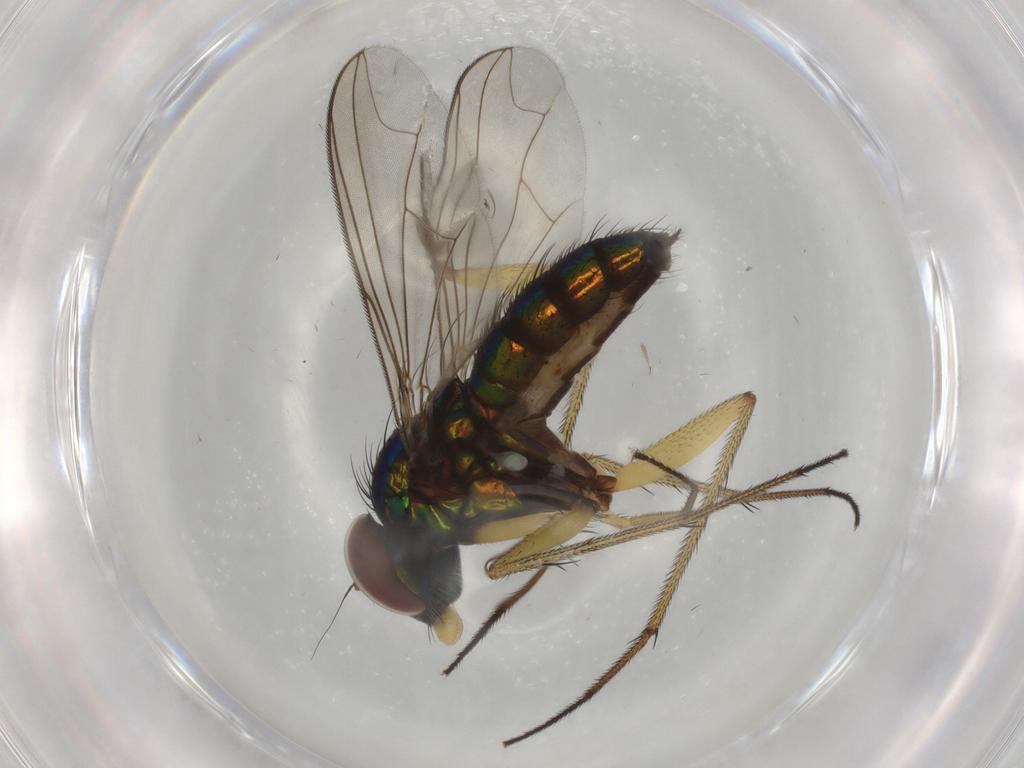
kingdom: Animalia
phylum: Arthropoda
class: Insecta
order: Diptera
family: Dolichopodidae
